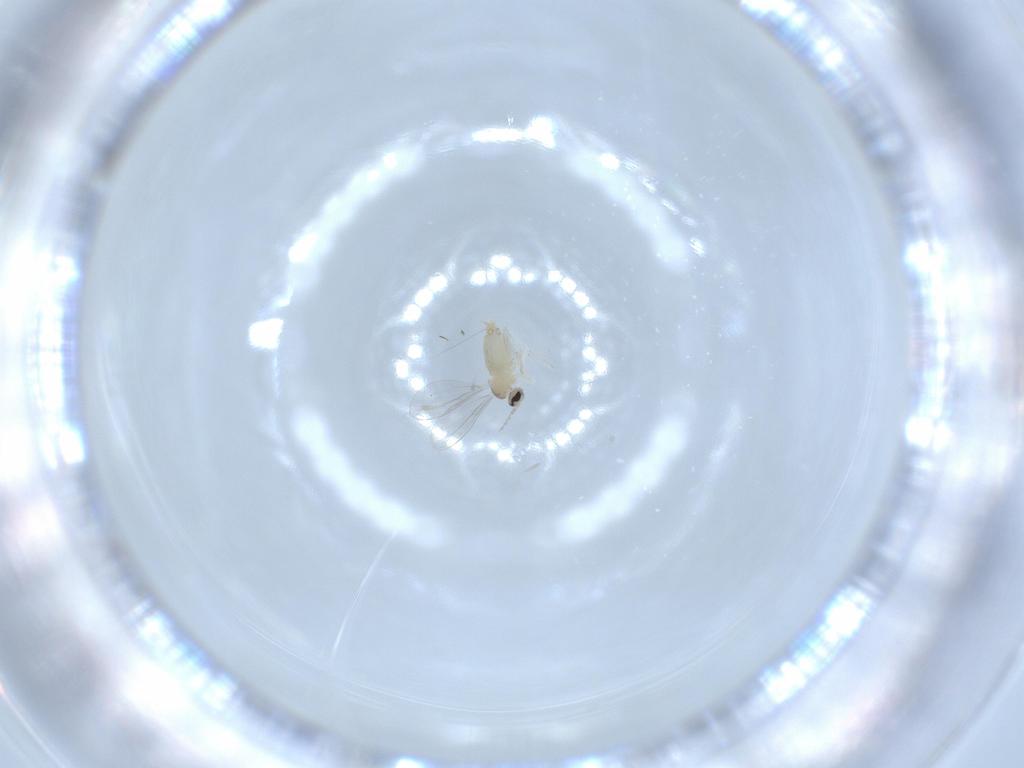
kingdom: Animalia
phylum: Arthropoda
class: Insecta
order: Diptera
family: Cecidomyiidae
